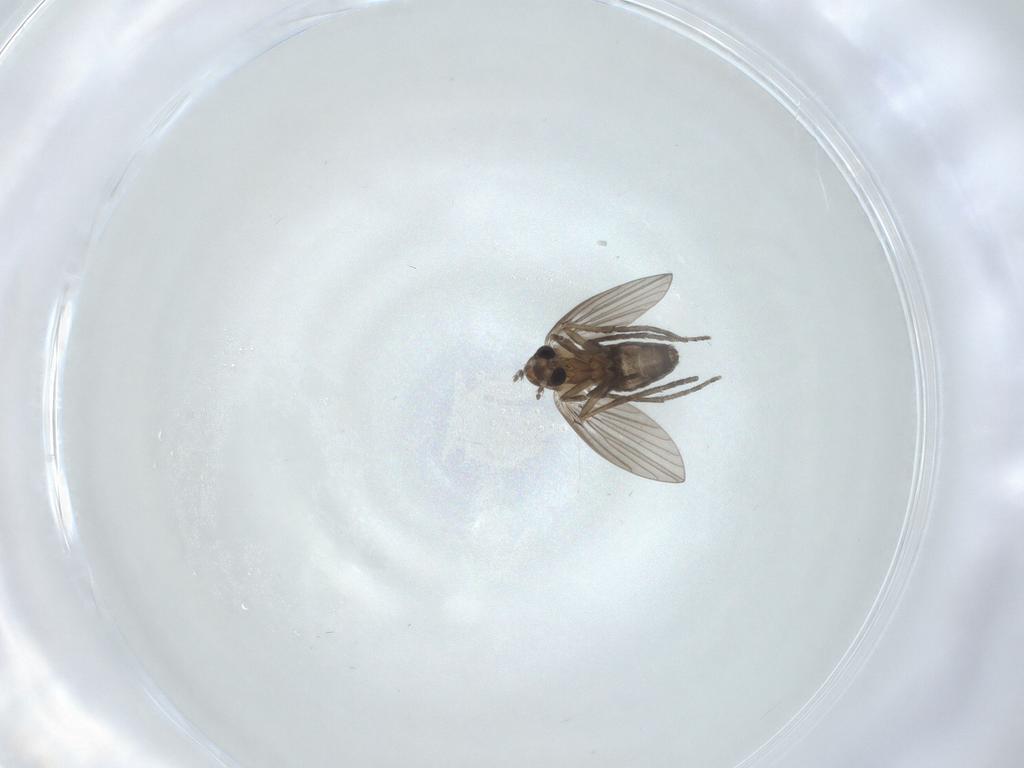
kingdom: Animalia
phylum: Arthropoda
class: Insecta
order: Diptera
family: Psychodidae
